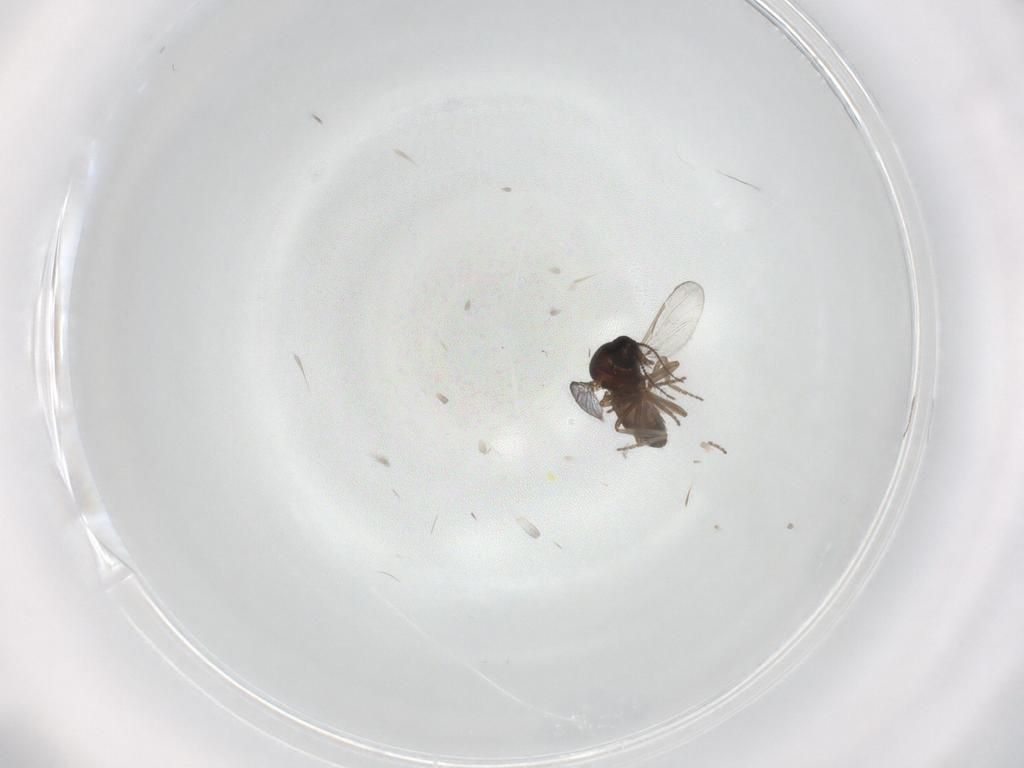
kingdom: Animalia
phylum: Arthropoda
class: Insecta
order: Diptera
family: Ceratopogonidae
